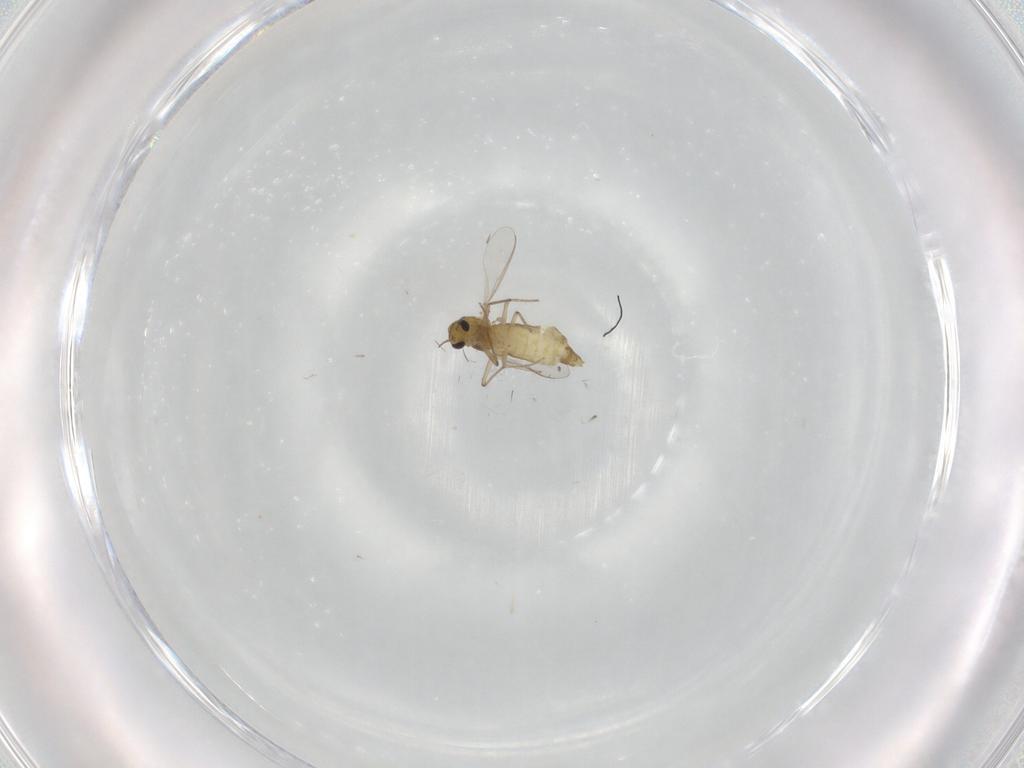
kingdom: Animalia
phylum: Arthropoda
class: Insecta
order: Diptera
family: Chironomidae
